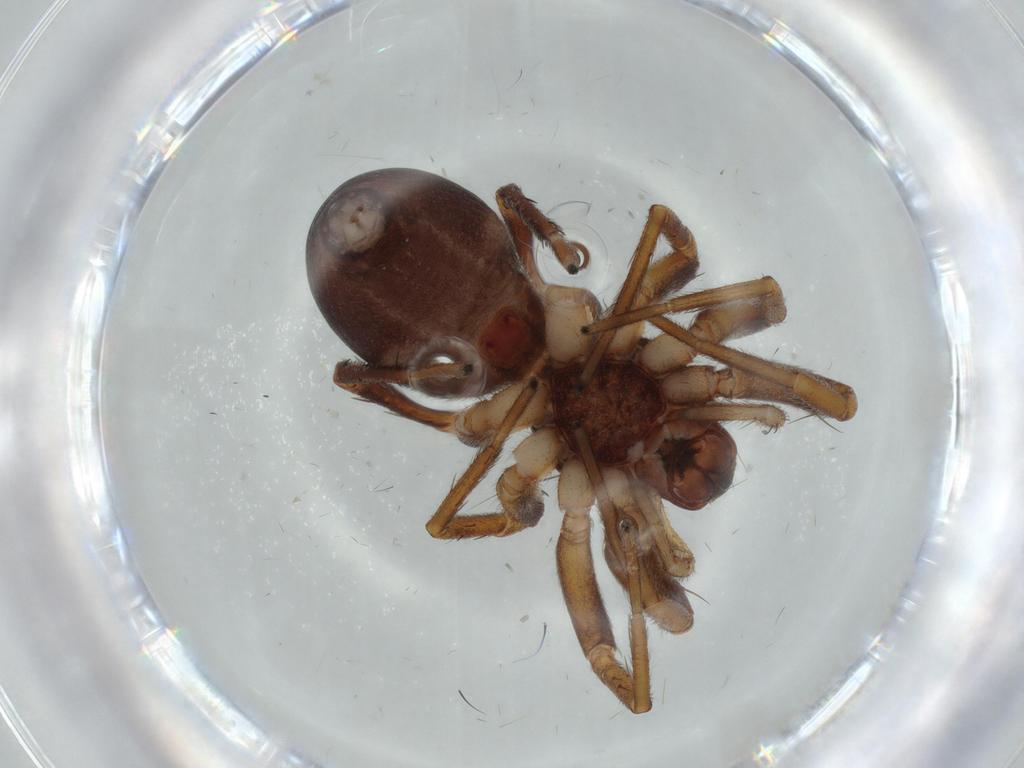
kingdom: Animalia
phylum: Arthropoda
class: Arachnida
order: Araneae
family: Corinnidae
